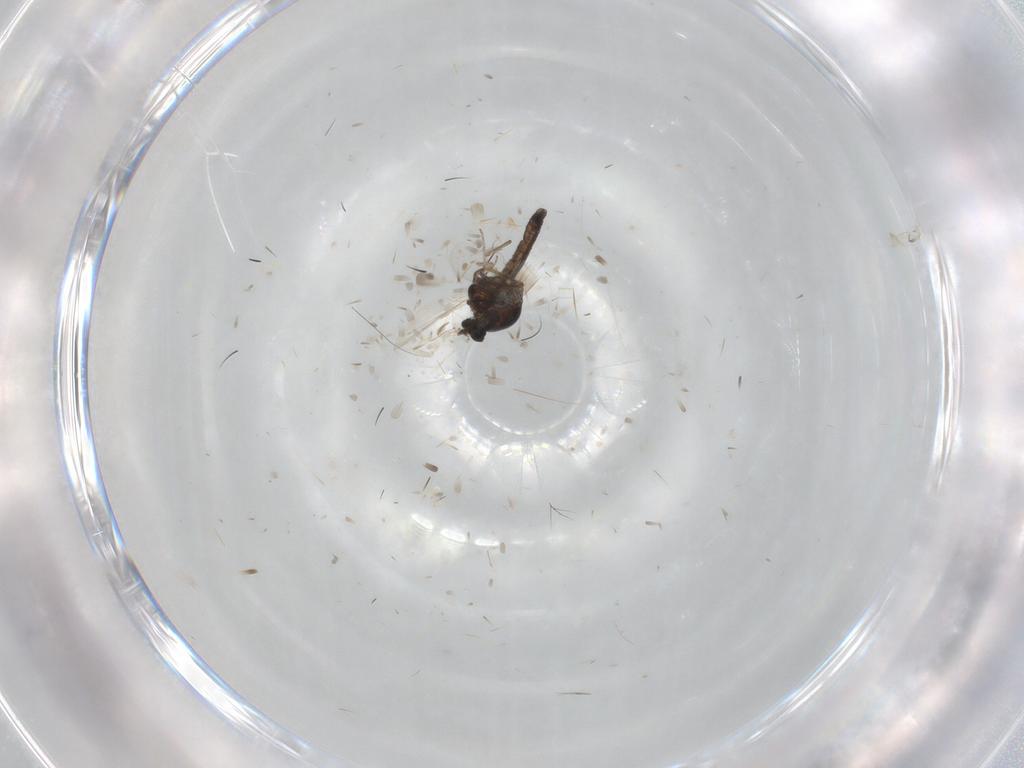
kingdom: Animalia
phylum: Arthropoda
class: Insecta
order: Diptera
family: Ceratopogonidae
